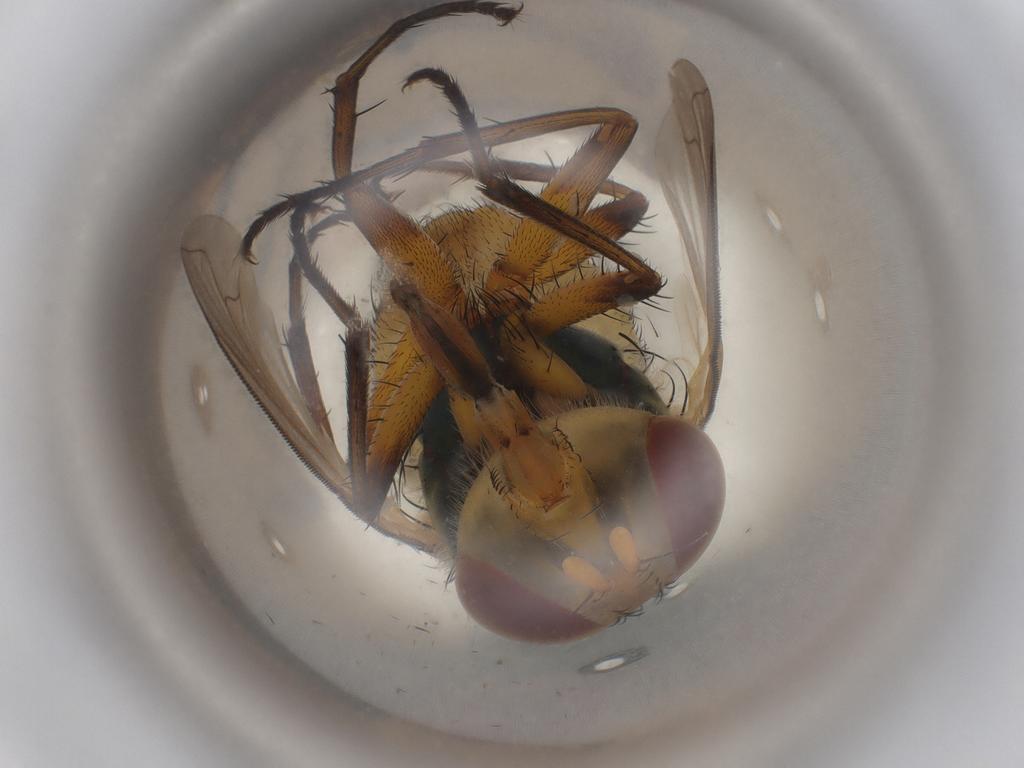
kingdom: Animalia
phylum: Arthropoda
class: Insecta
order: Diptera
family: Calliphoridae
